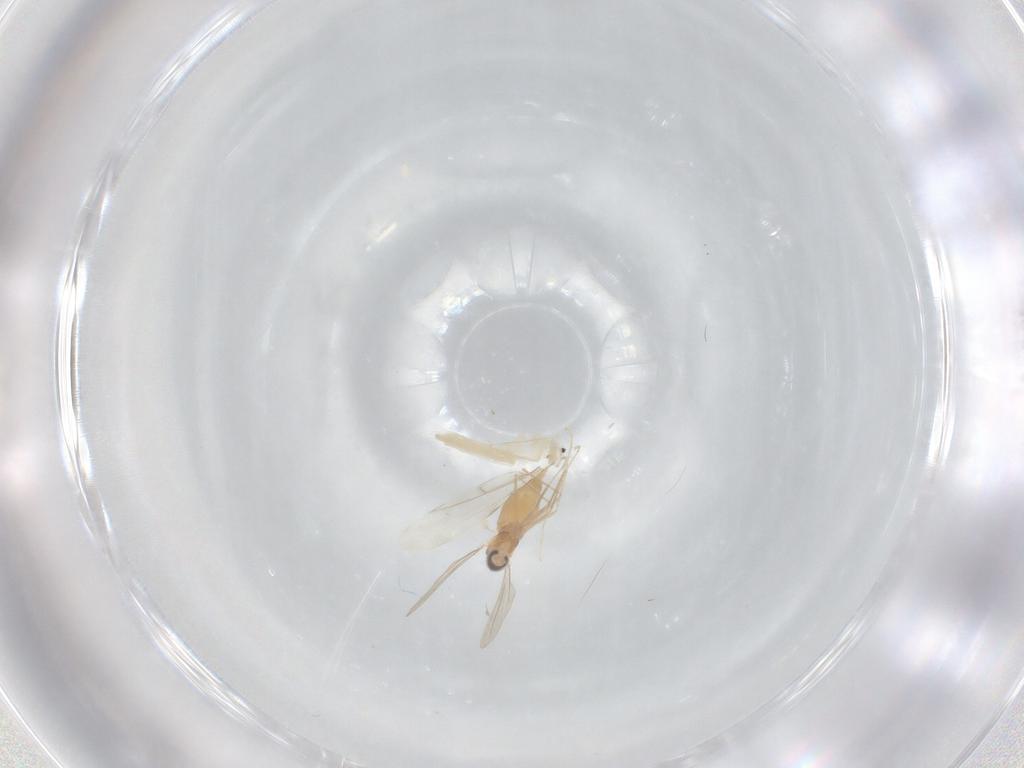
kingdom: Animalia
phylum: Arthropoda
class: Insecta
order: Diptera
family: Cecidomyiidae
